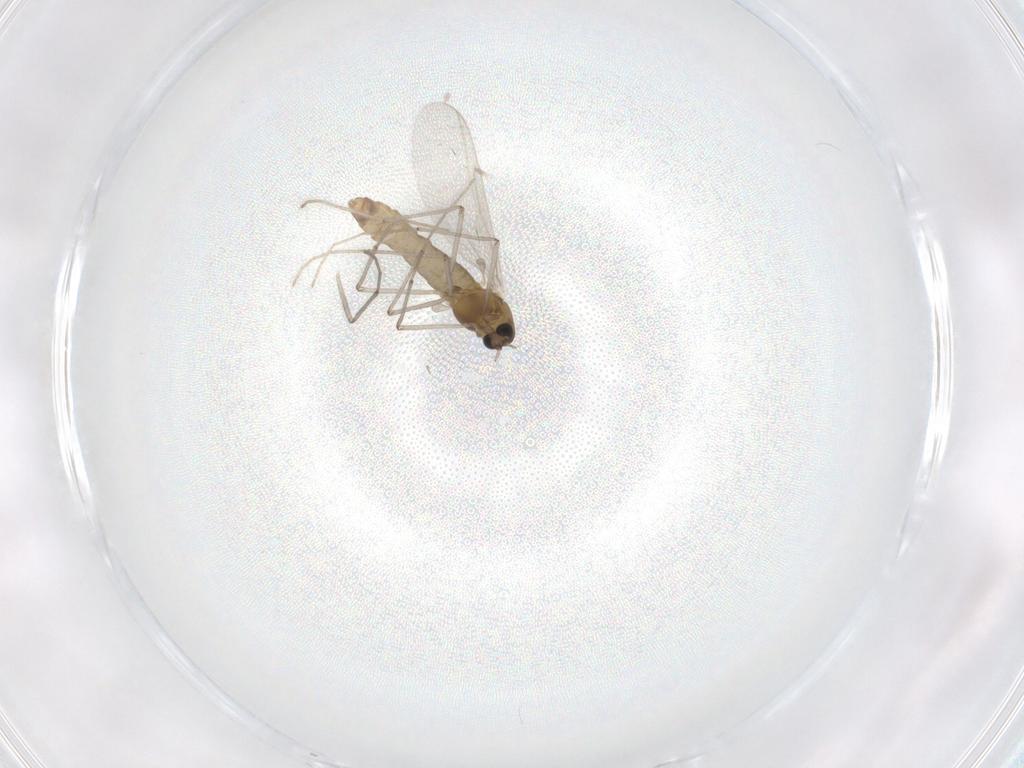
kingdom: Animalia
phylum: Arthropoda
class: Insecta
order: Diptera
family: Chironomidae
